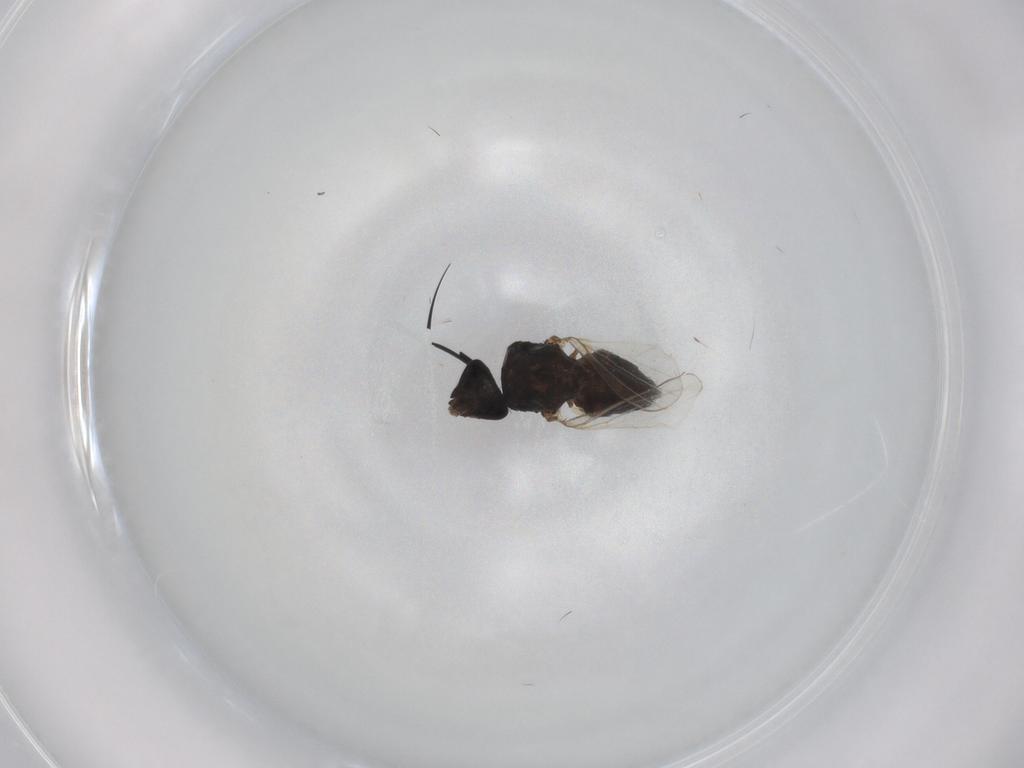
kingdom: Animalia
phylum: Arthropoda
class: Insecta
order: Diptera
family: Tachinidae
